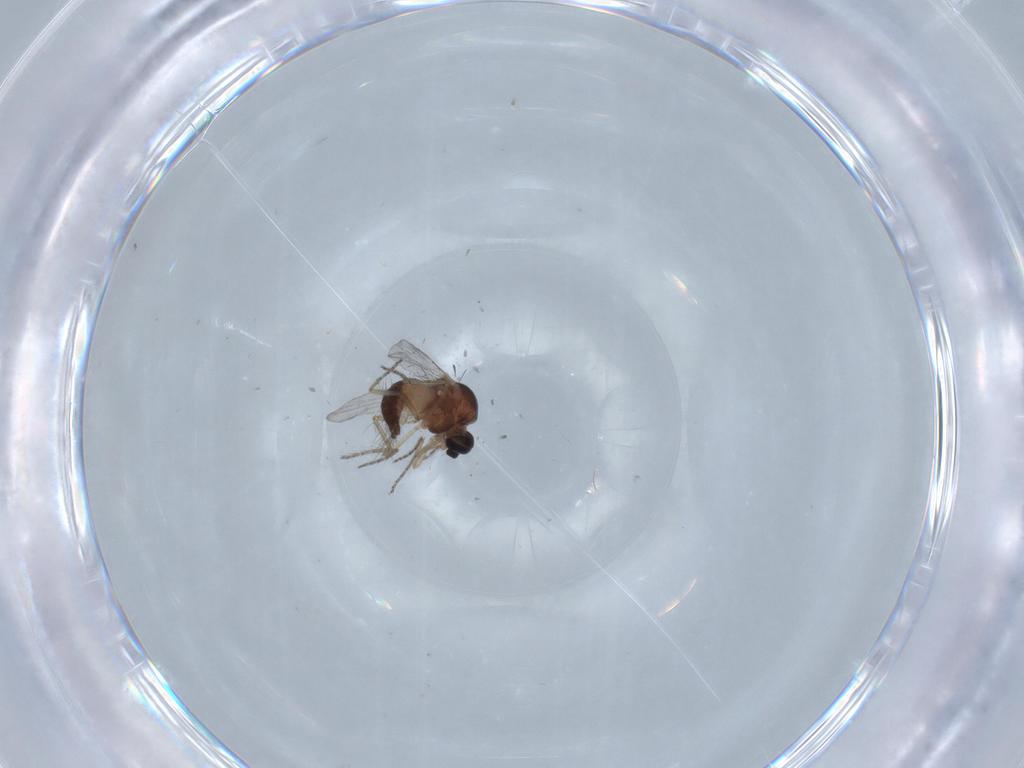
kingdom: Animalia
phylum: Arthropoda
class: Insecta
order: Diptera
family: Ceratopogonidae
